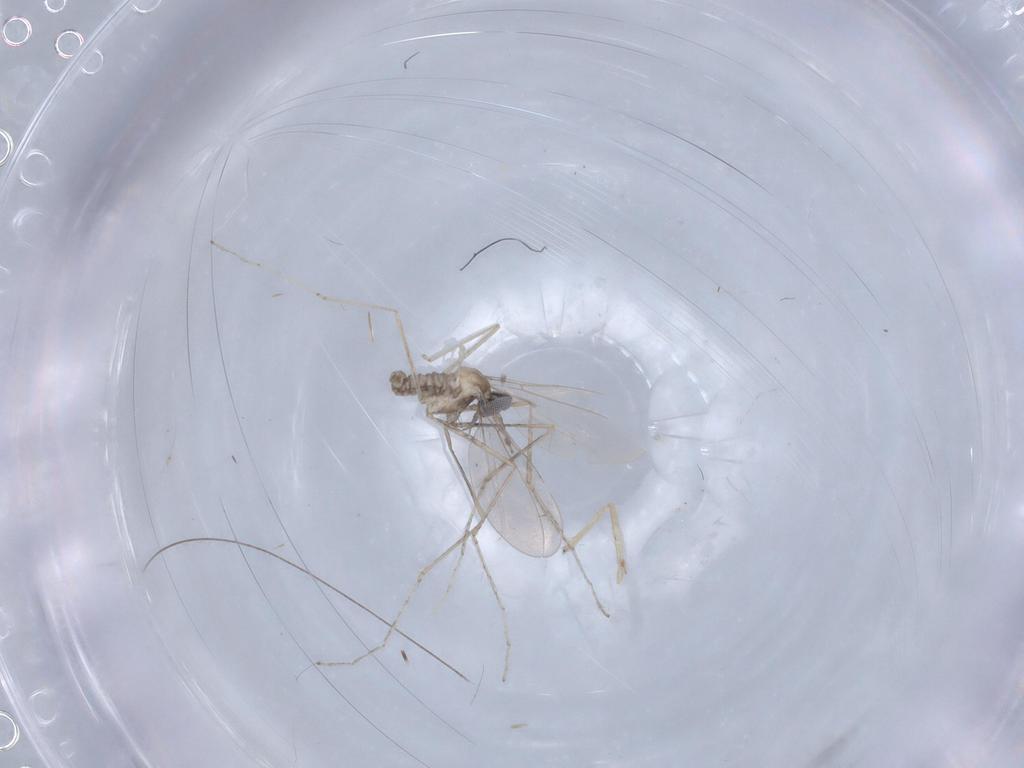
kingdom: Animalia
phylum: Arthropoda
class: Insecta
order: Diptera
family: Cecidomyiidae
